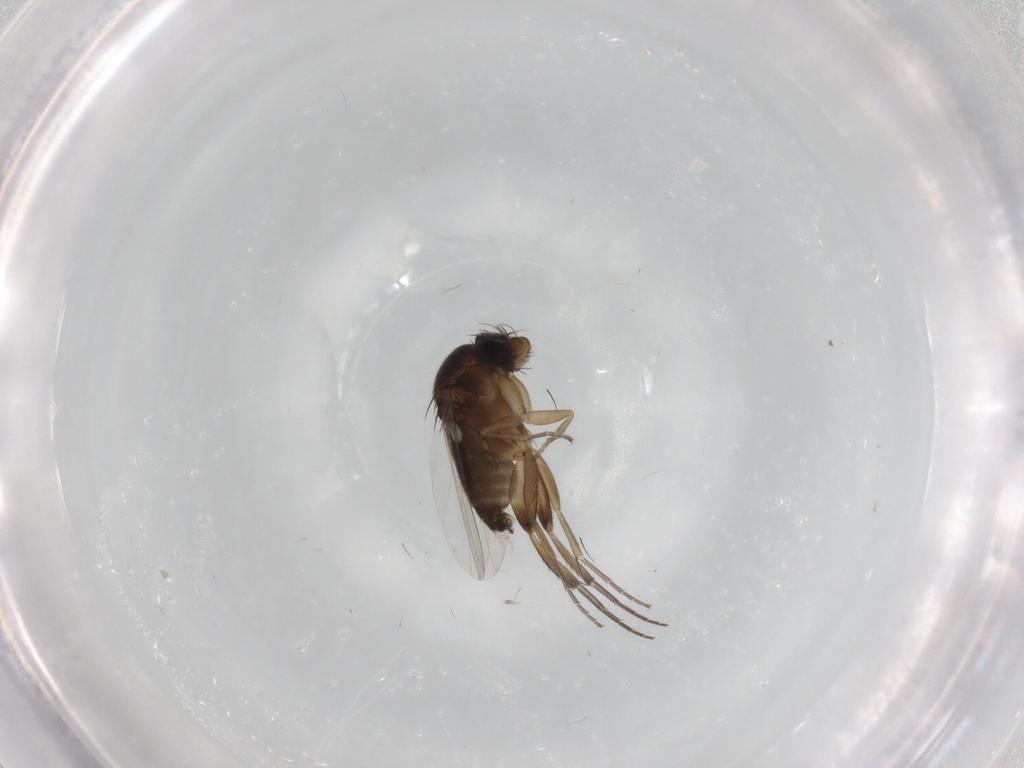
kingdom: Animalia
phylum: Arthropoda
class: Insecta
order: Diptera
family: Phoridae
